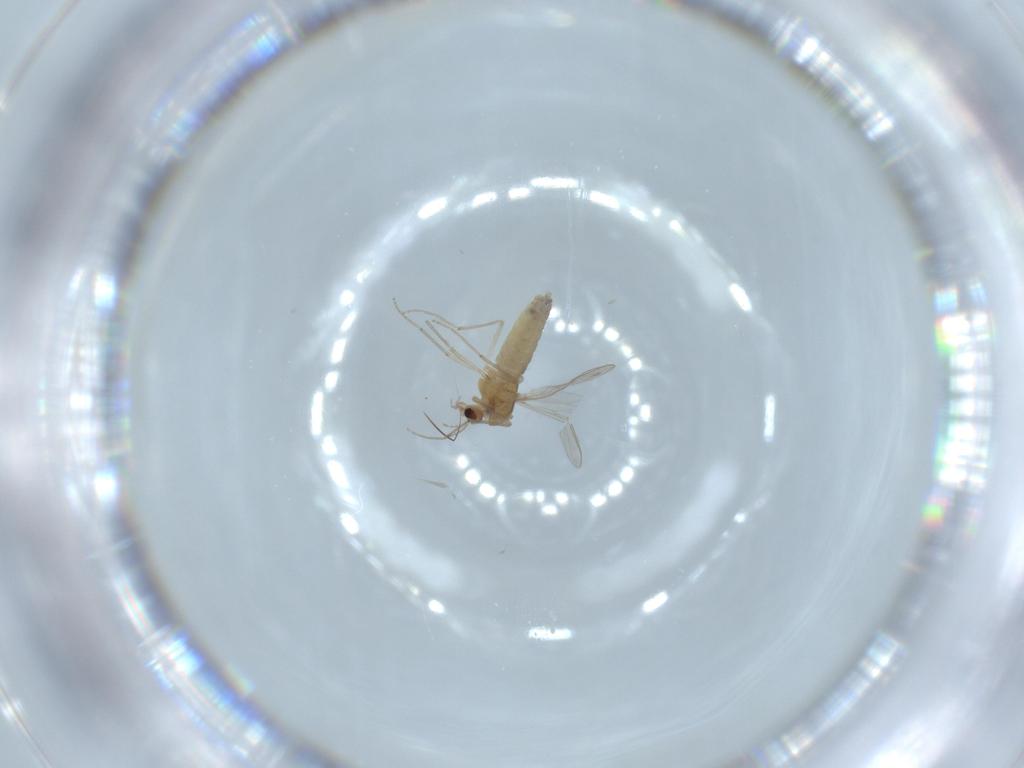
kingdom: Animalia
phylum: Arthropoda
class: Insecta
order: Diptera
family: Chironomidae
